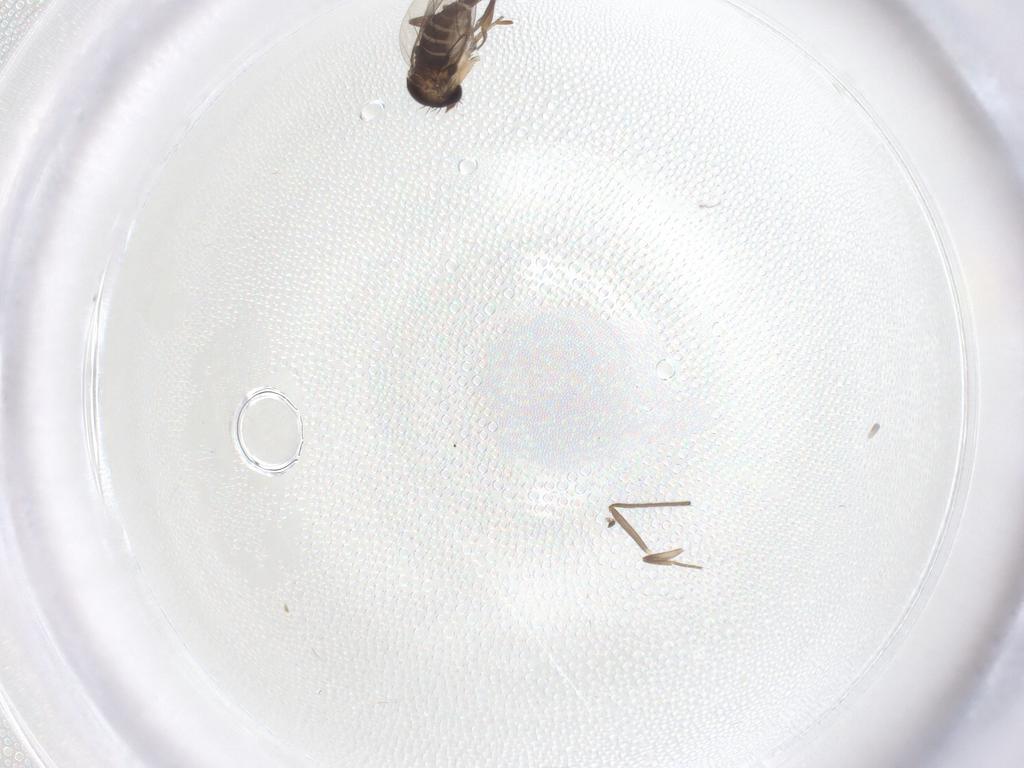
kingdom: Animalia
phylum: Arthropoda
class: Insecta
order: Diptera
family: Phoridae
